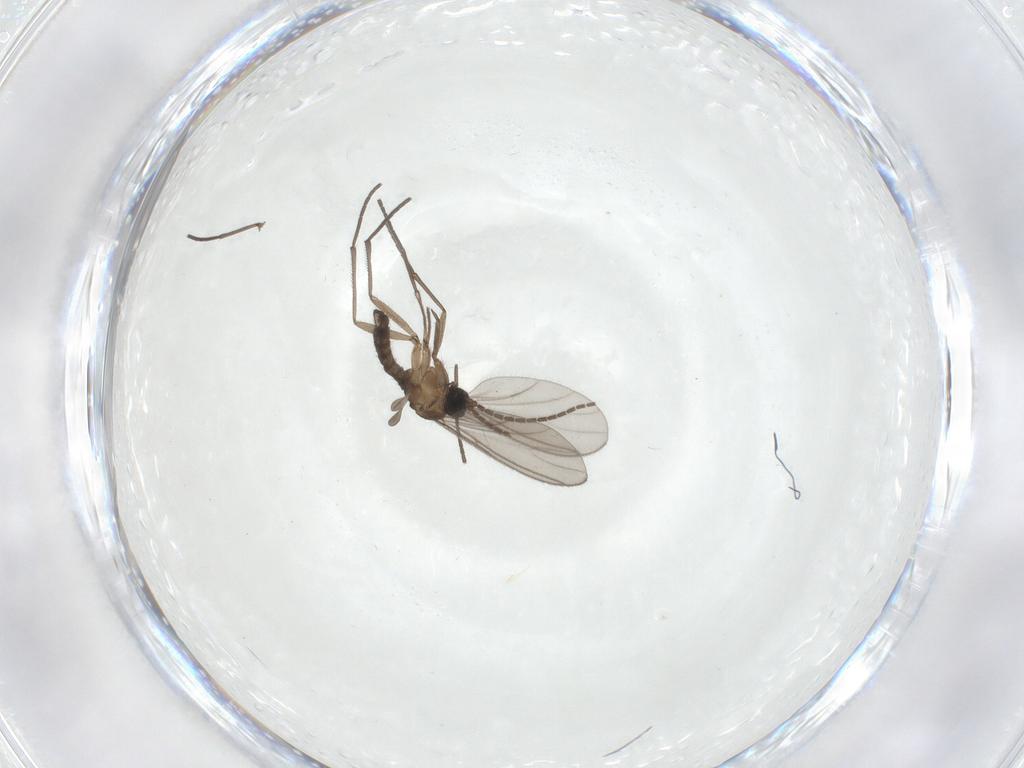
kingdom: Animalia
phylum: Arthropoda
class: Insecta
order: Diptera
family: Sciaridae
